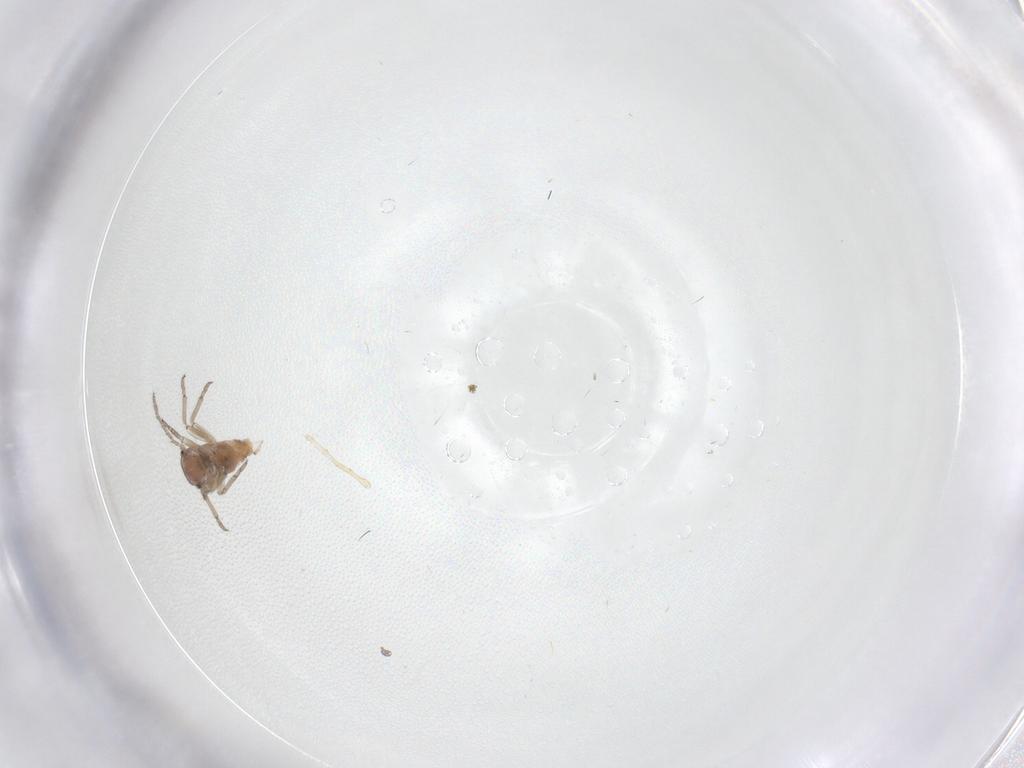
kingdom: Animalia
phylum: Arthropoda
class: Insecta
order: Psocodea
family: Psocidae
